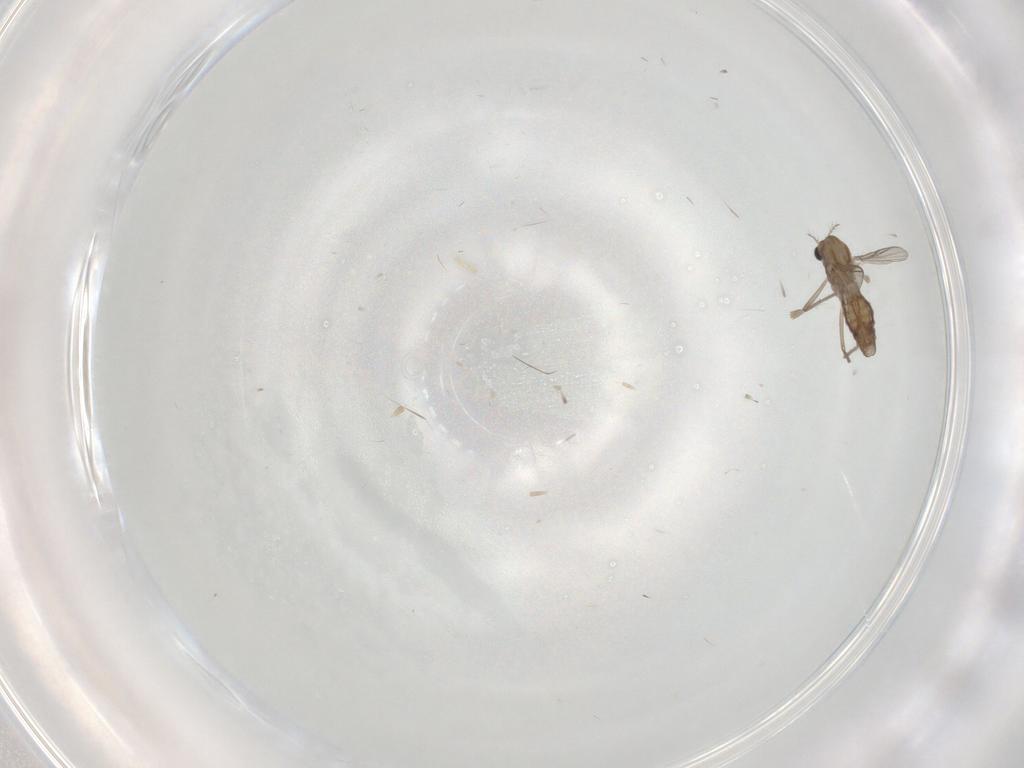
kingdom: Animalia
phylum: Arthropoda
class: Insecta
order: Diptera
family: Chironomidae
